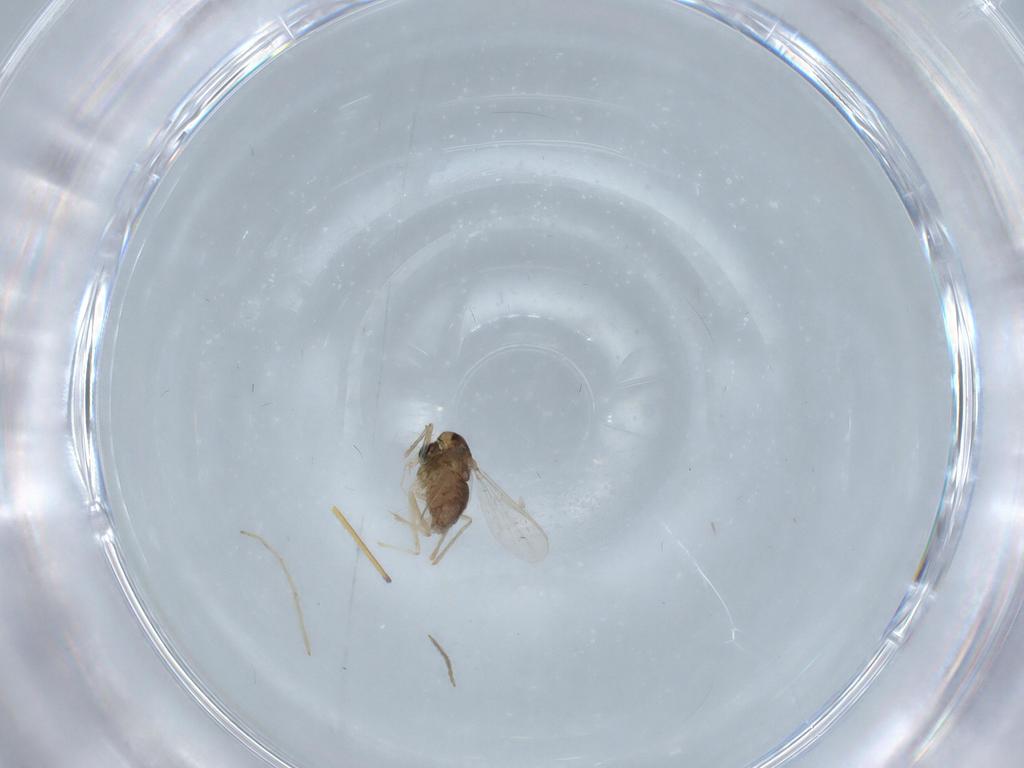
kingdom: Animalia
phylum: Arthropoda
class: Insecta
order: Diptera
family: Chironomidae
